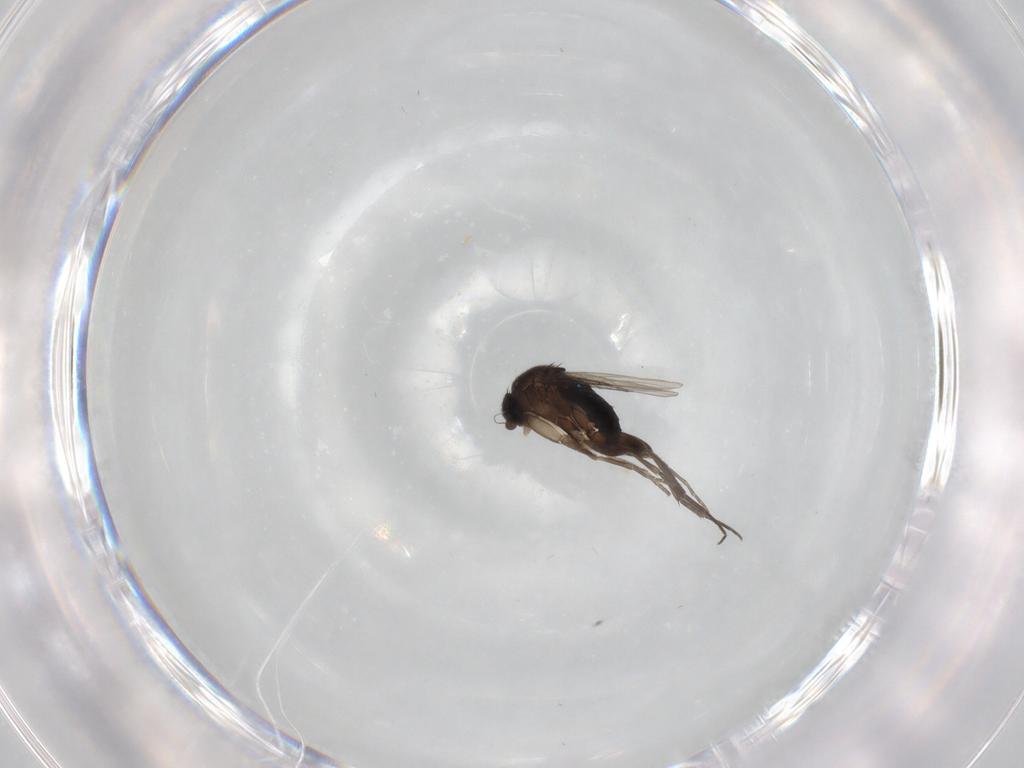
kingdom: Animalia
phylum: Arthropoda
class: Insecta
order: Diptera
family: Phoridae
